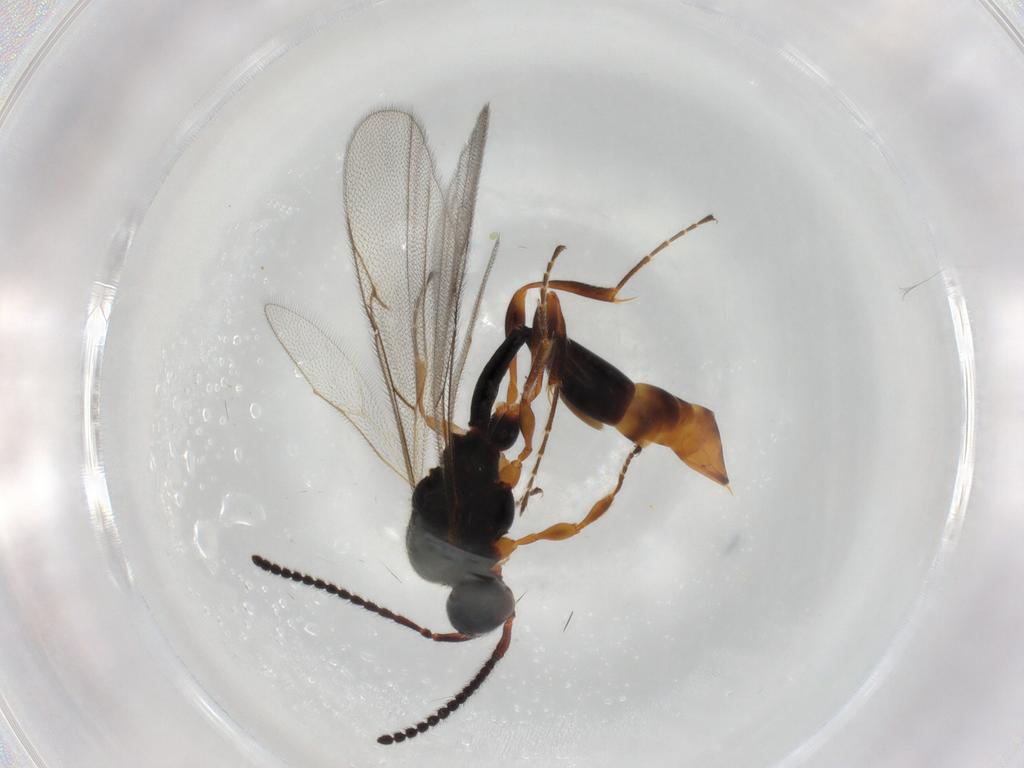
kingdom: Animalia
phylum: Arthropoda
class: Insecta
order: Hymenoptera
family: Diapriidae
